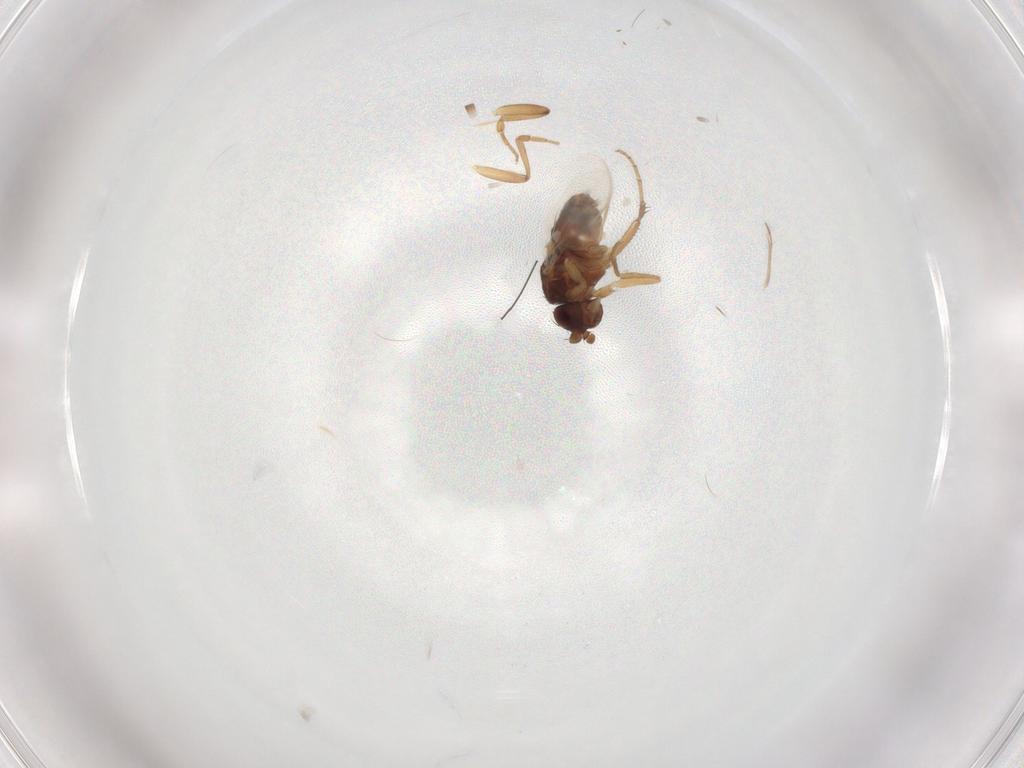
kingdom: Animalia
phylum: Arthropoda
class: Insecta
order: Diptera
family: Sphaeroceridae
